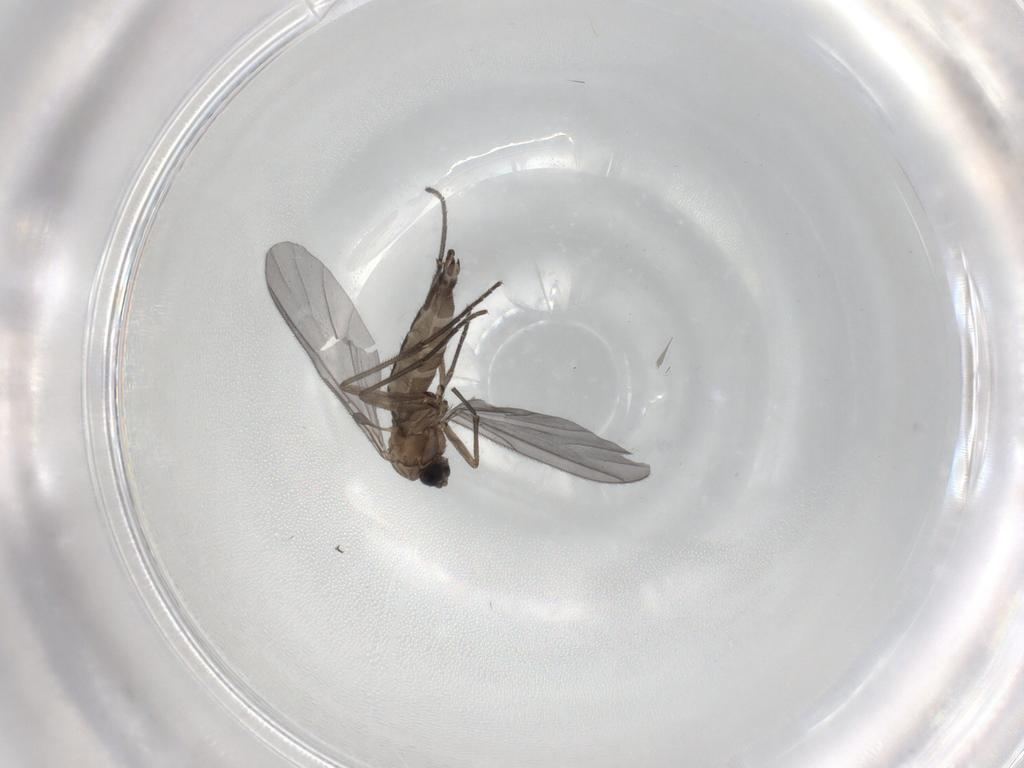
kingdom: Animalia
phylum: Arthropoda
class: Insecta
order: Diptera
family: Sciaridae
